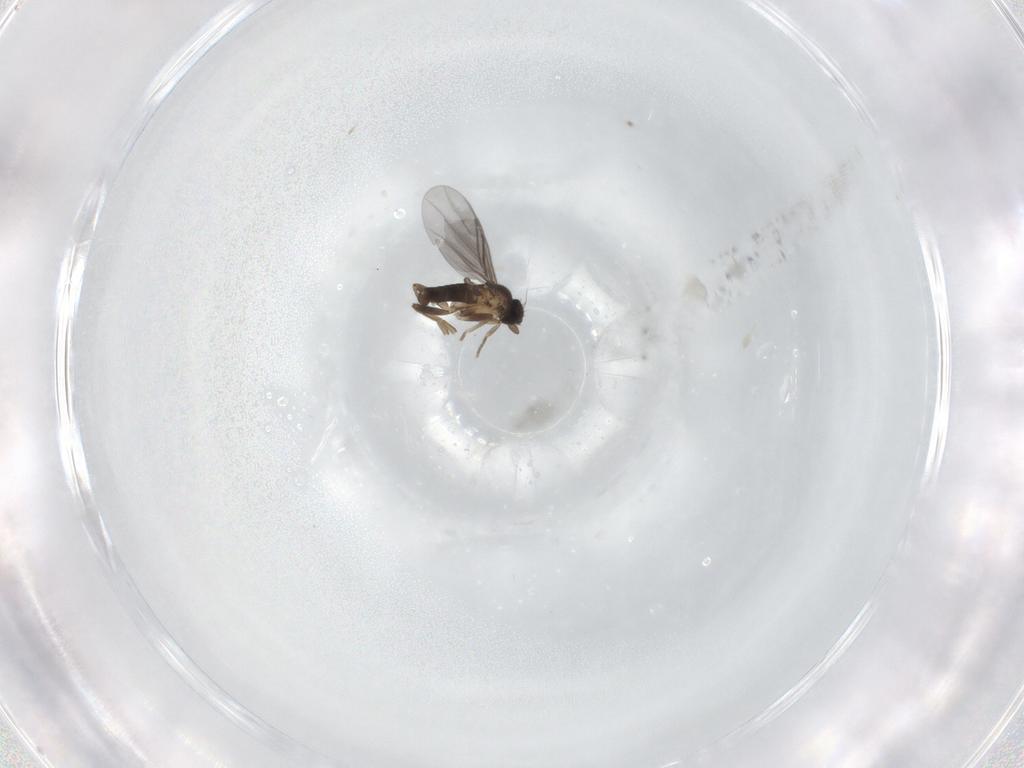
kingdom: Animalia
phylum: Arthropoda
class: Insecta
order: Diptera
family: Phoridae
